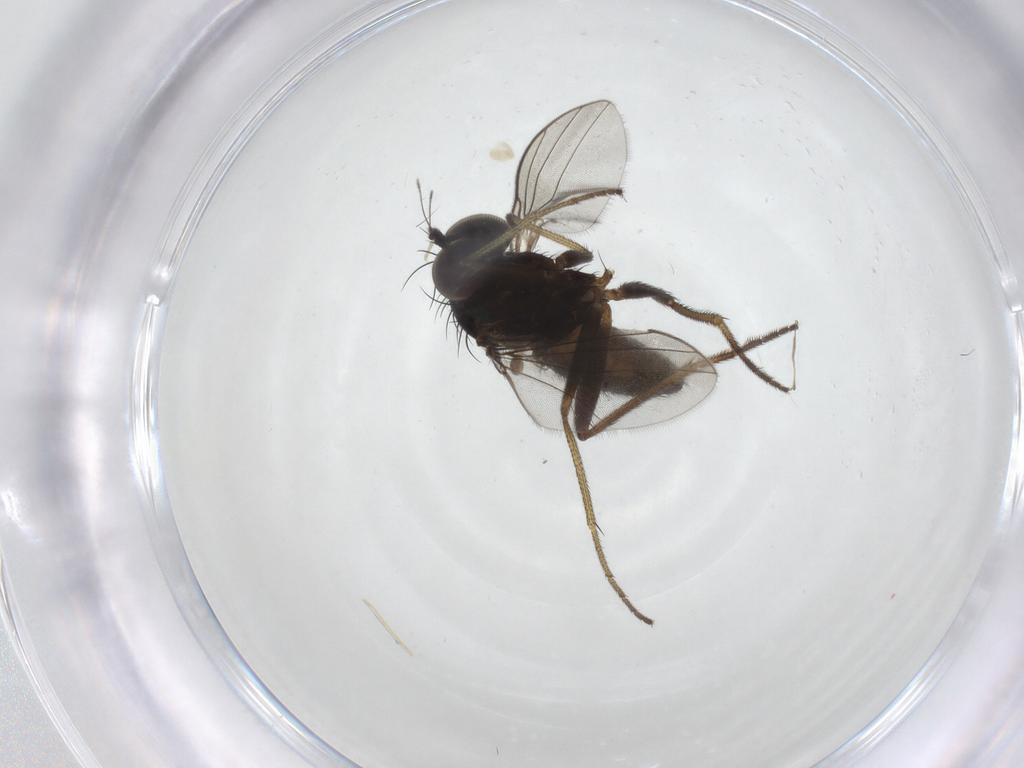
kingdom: Animalia
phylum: Arthropoda
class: Insecta
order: Diptera
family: Dolichopodidae
